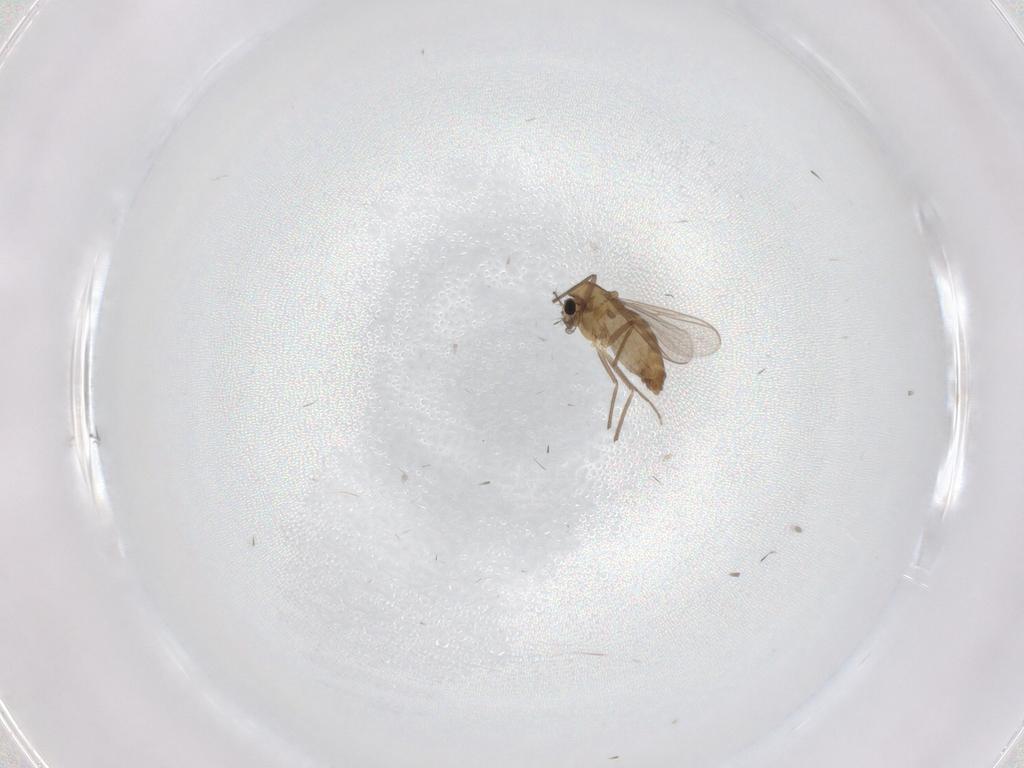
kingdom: Animalia
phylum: Arthropoda
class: Insecta
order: Diptera
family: Chironomidae
